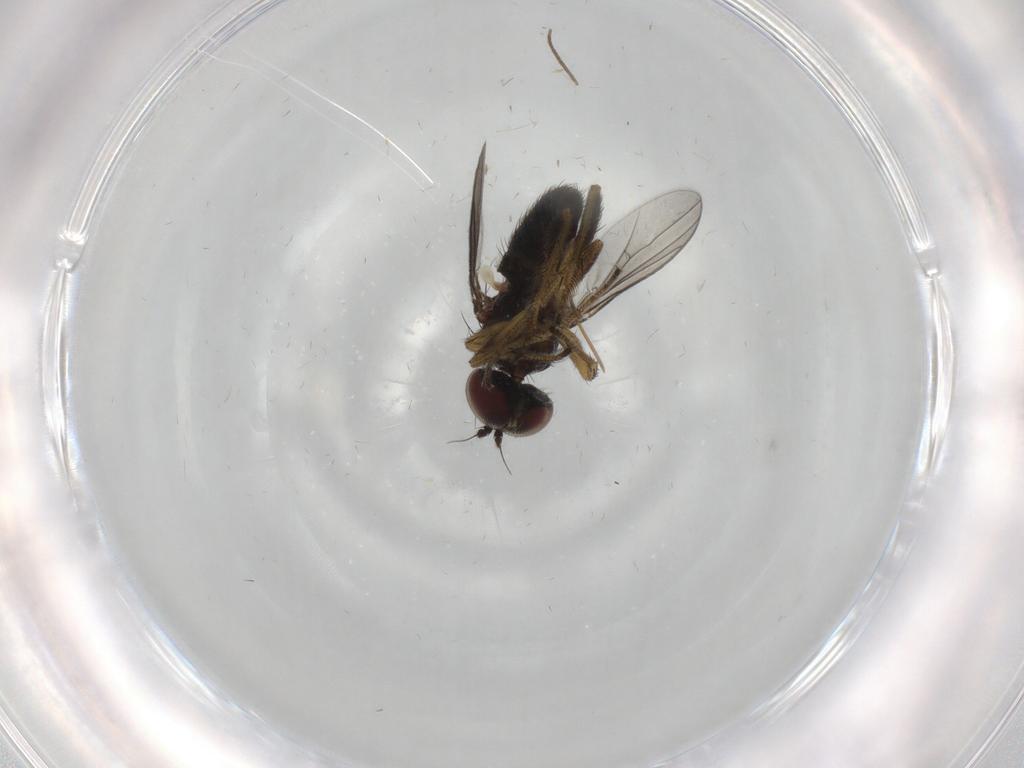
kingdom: Animalia
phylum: Arthropoda
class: Insecta
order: Diptera
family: Dolichopodidae
